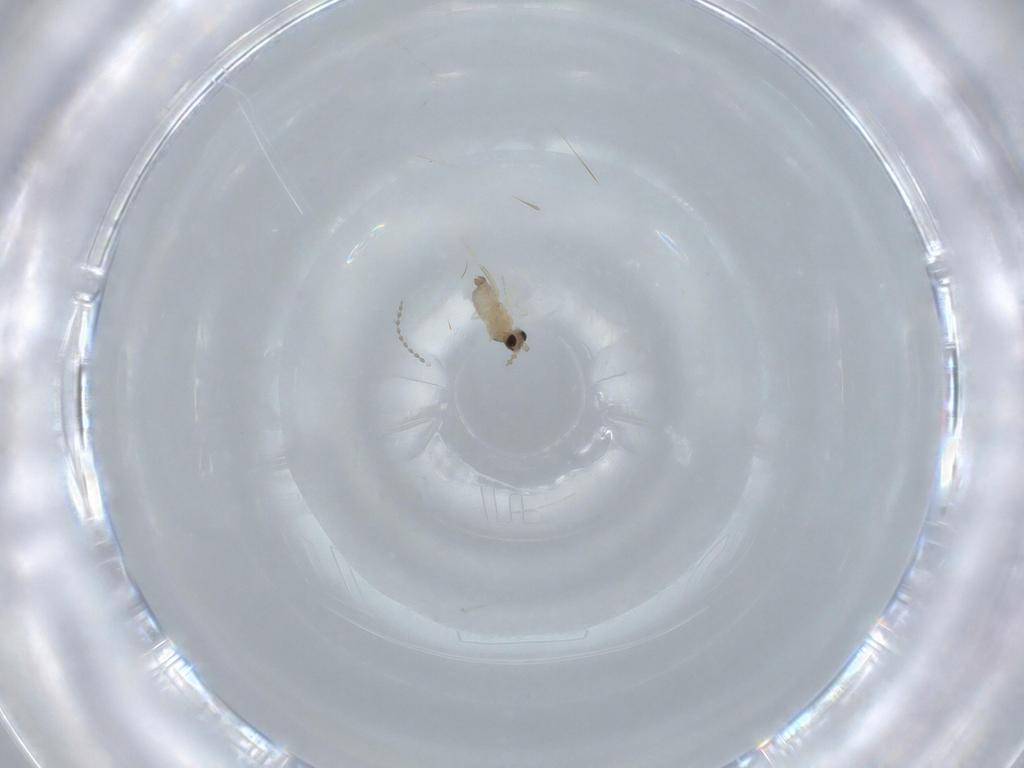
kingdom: Animalia
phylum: Arthropoda
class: Insecta
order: Diptera
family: Cecidomyiidae
